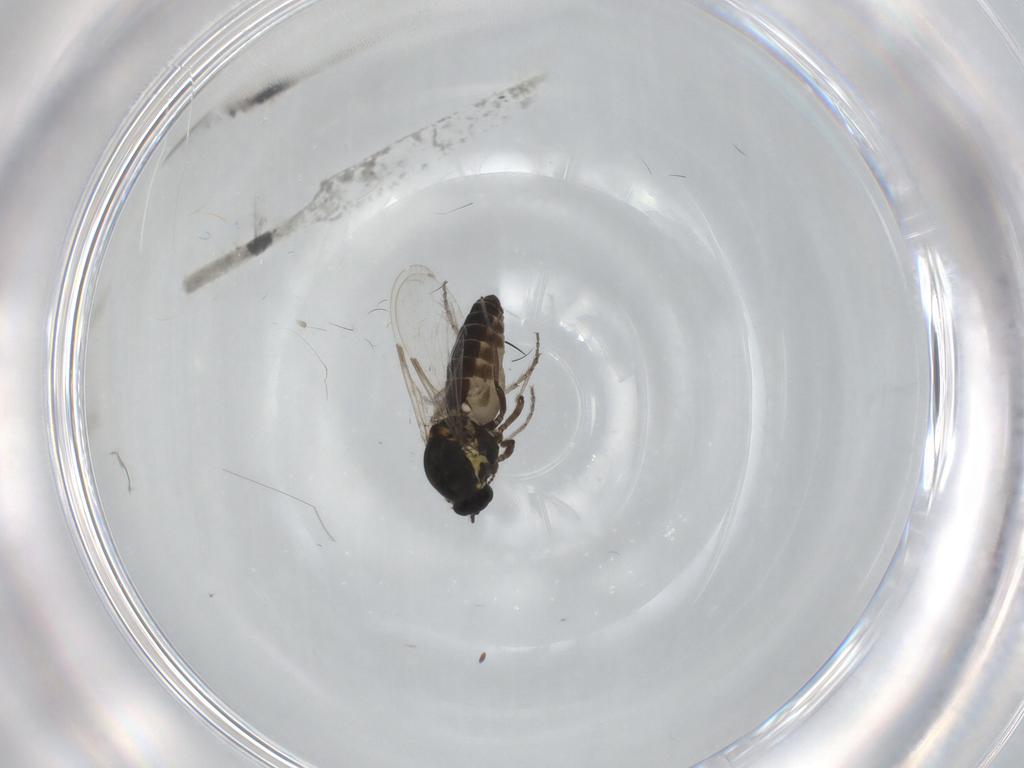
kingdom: Animalia
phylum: Arthropoda
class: Insecta
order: Diptera
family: Ceratopogonidae
